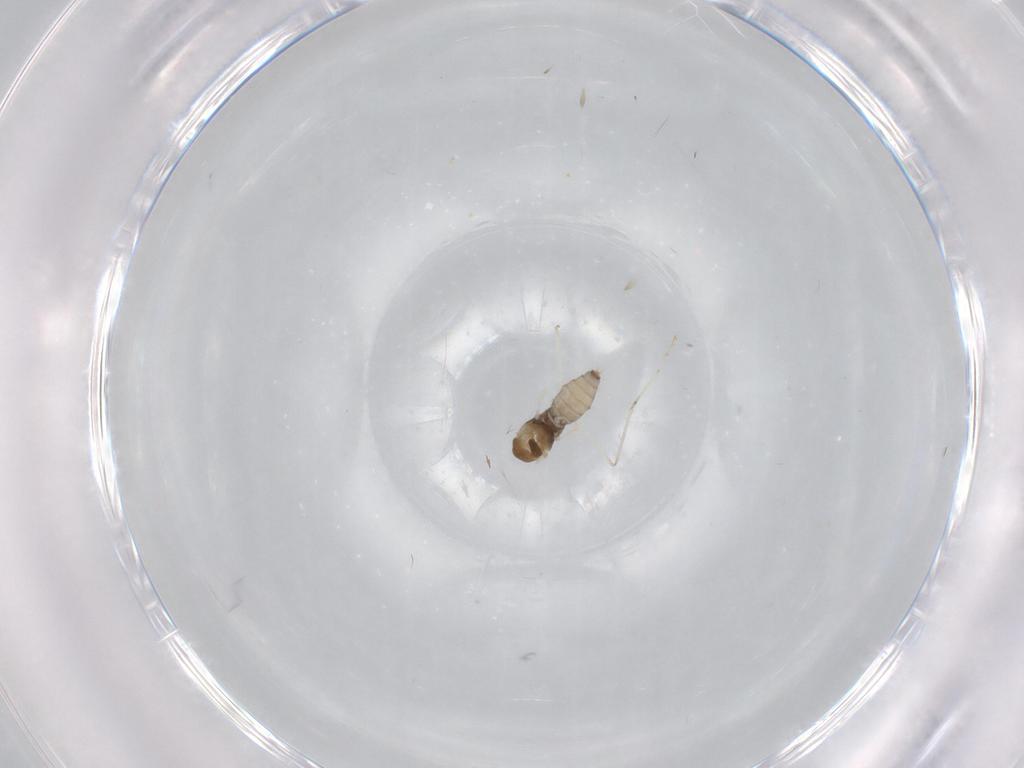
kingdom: Animalia
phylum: Arthropoda
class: Insecta
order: Diptera
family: Cecidomyiidae
